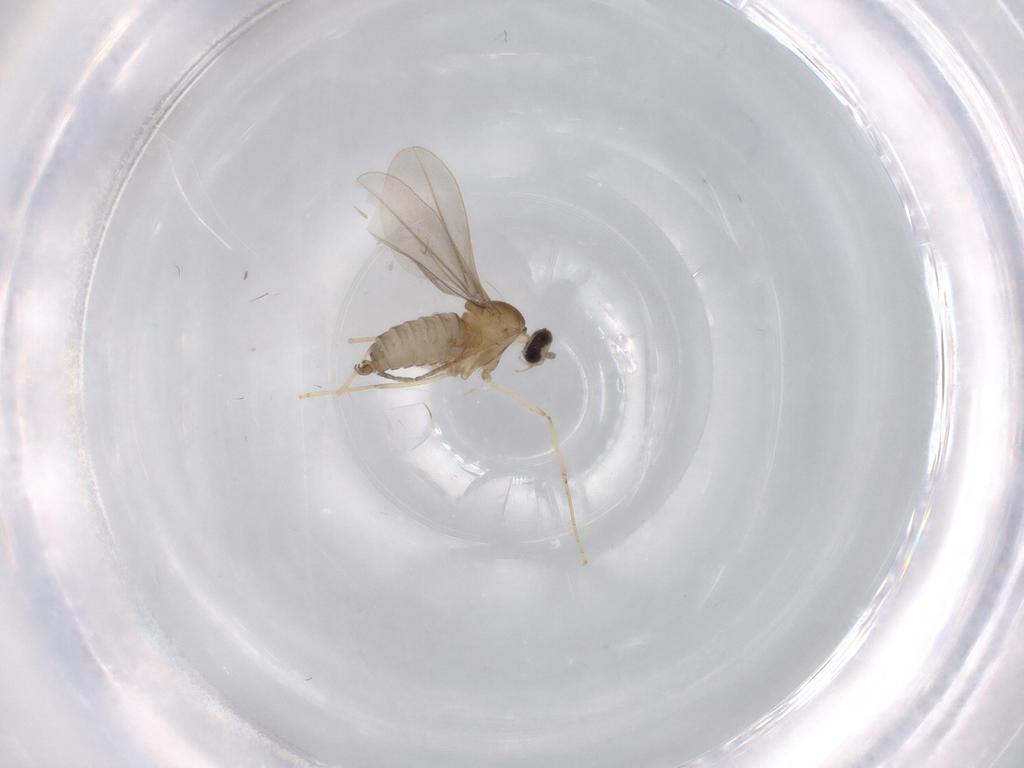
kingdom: Animalia
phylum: Arthropoda
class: Insecta
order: Diptera
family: Cecidomyiidae
